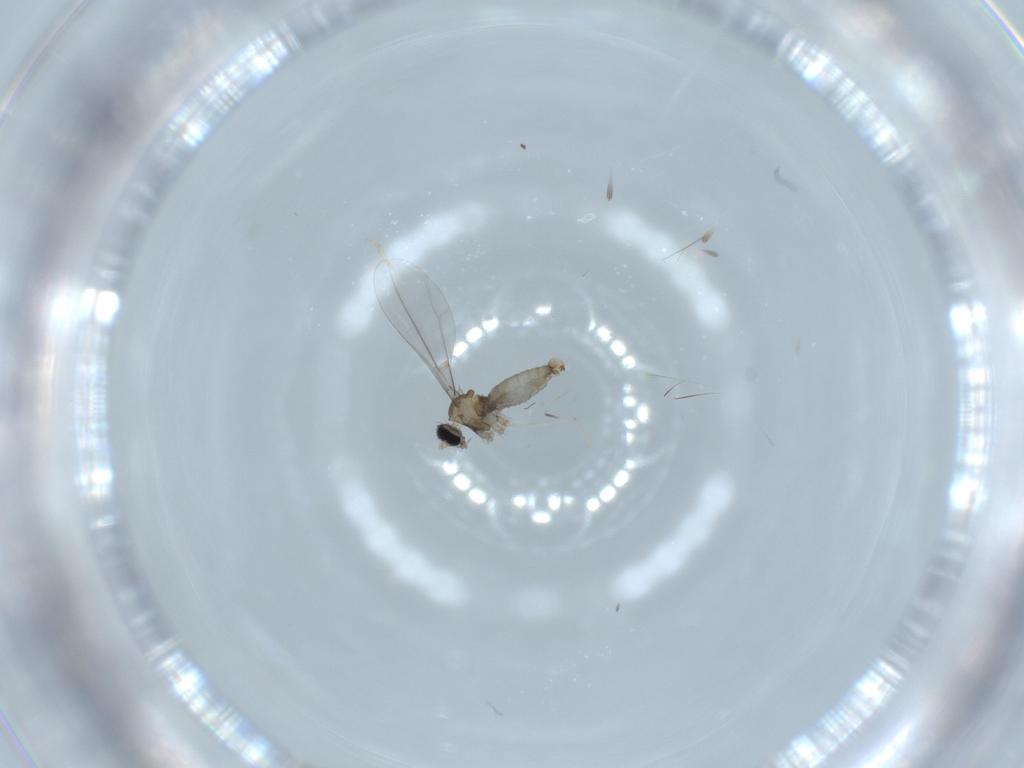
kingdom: Animalia
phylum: Arthropoda
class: Insecta
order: Diptera
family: Cecidomyiidae
